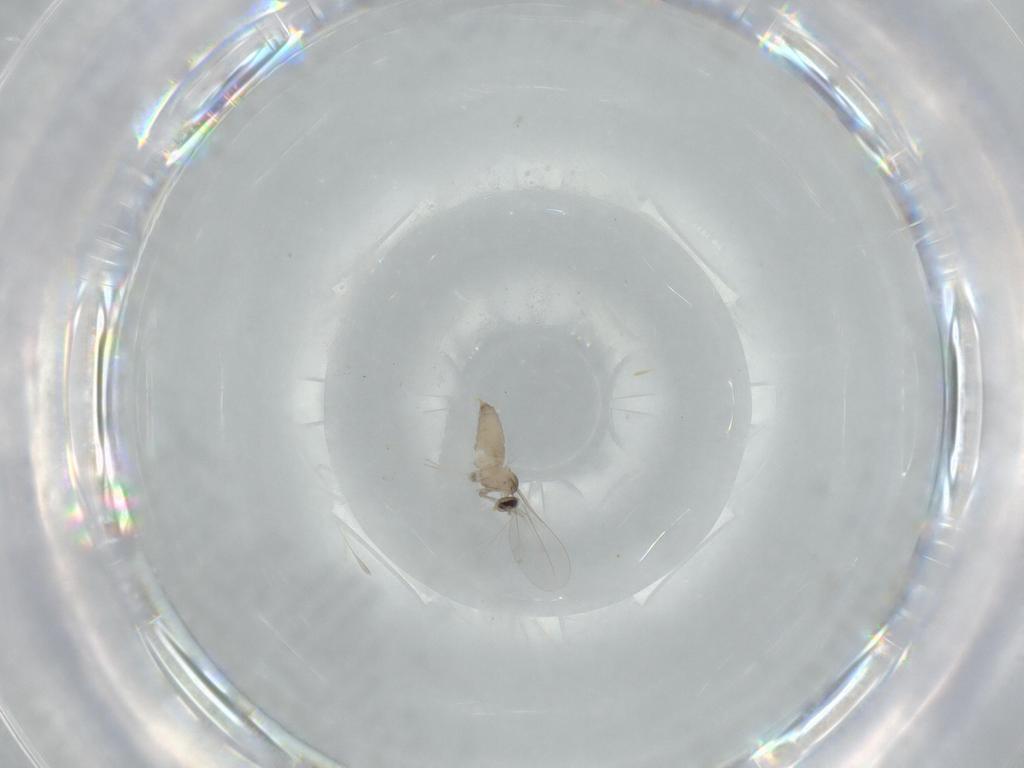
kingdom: Animalia
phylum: Arthropoda
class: Insecta
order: Diptera
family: Cecidomyiidae
